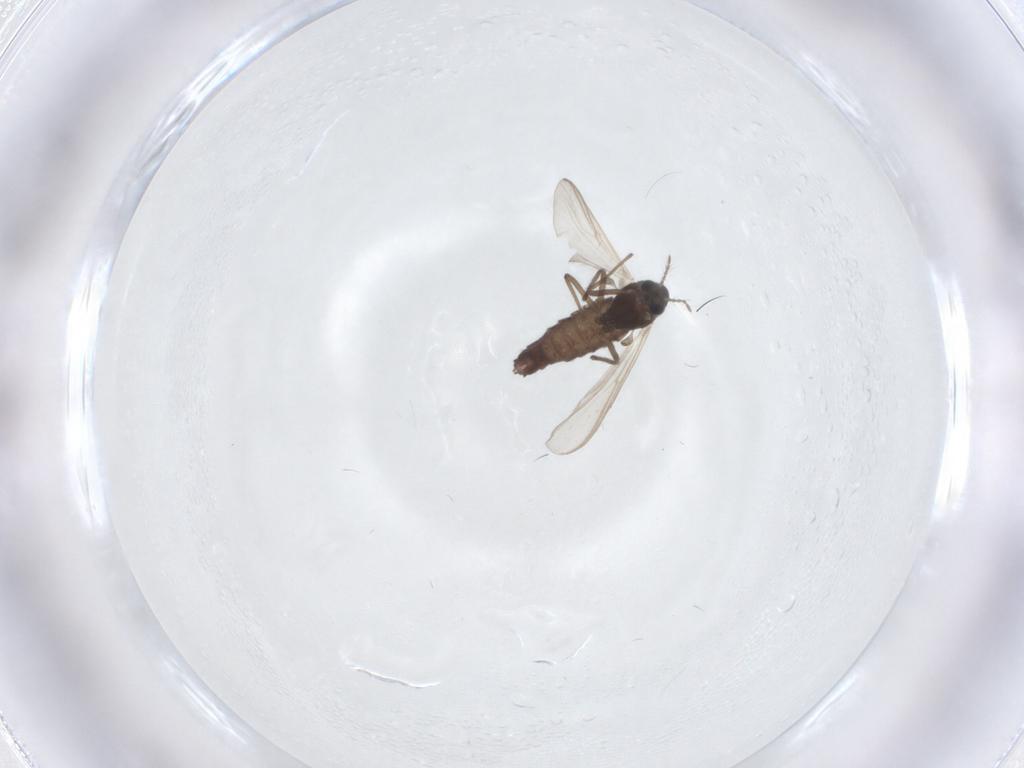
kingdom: Animalia
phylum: Arthropoda
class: Insecta
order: Diptera
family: Chironomidae
